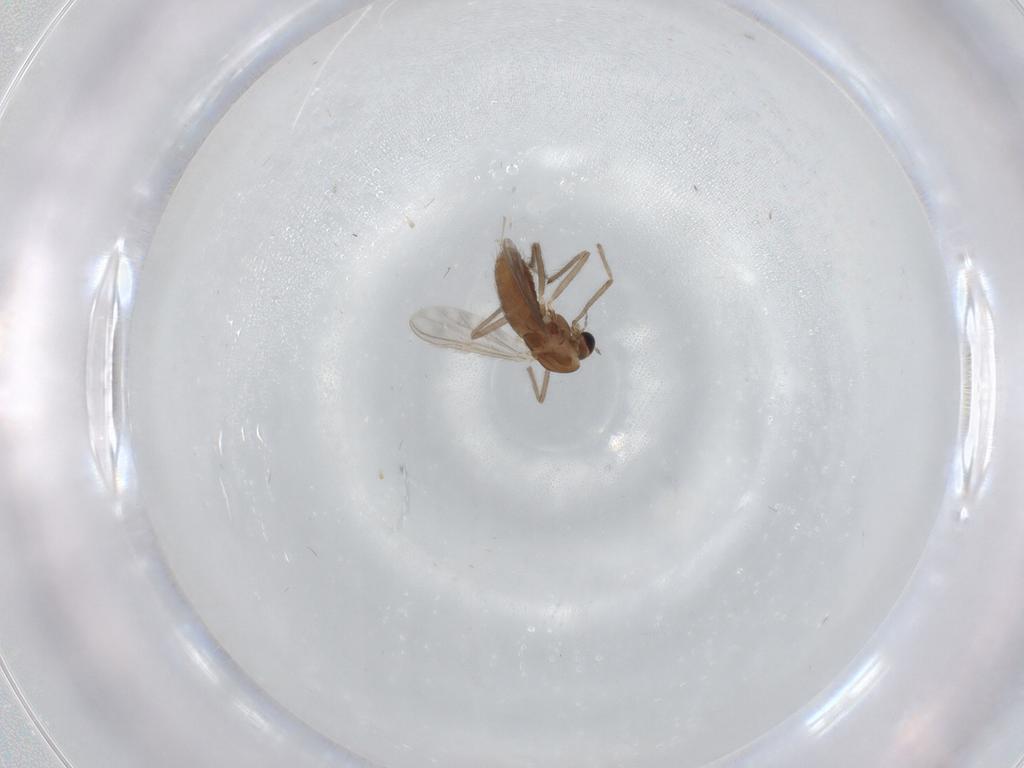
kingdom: Animalia
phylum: Arthropoda
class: Insecta
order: Diptera
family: Chironomidae
